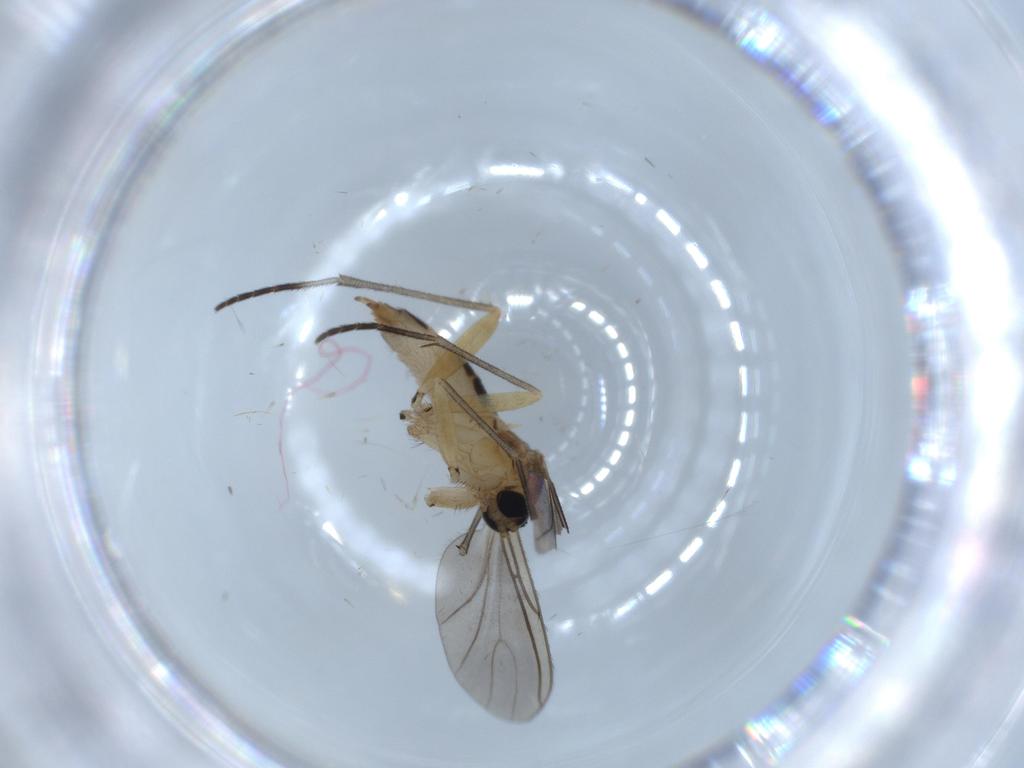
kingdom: Animalia
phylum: Arthropoda
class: Insecta
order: Diptera
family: Sciaridae
